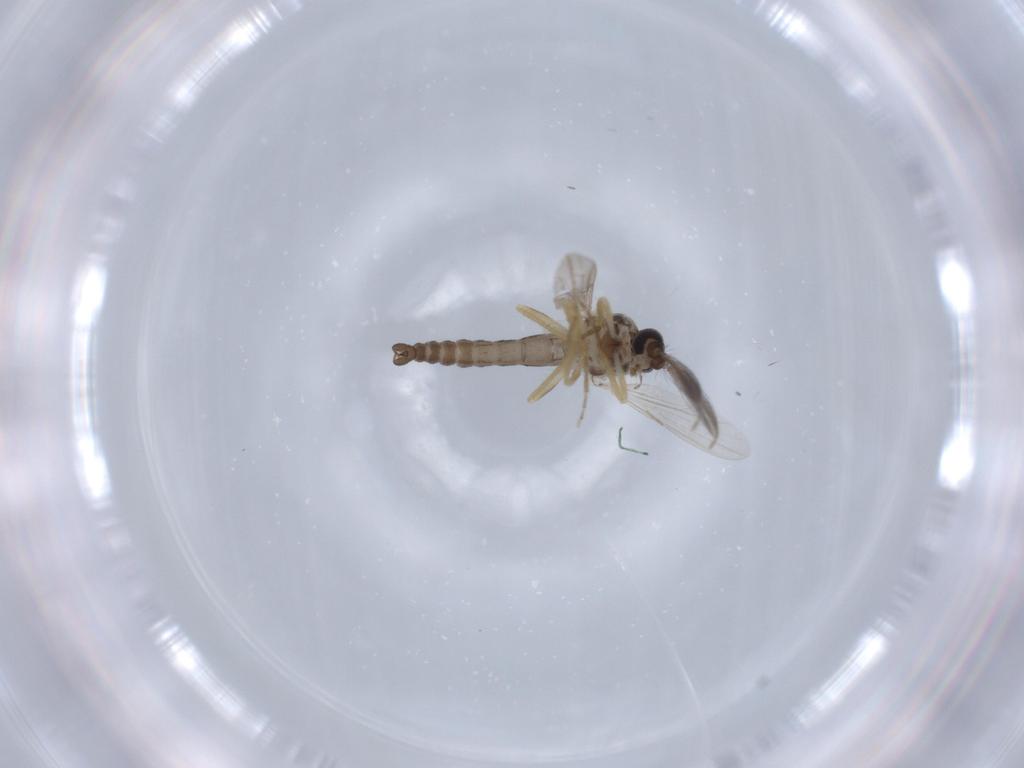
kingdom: Animalia
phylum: Arthropoda
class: Insecta
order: Diptera
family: Ceratopogonidae
